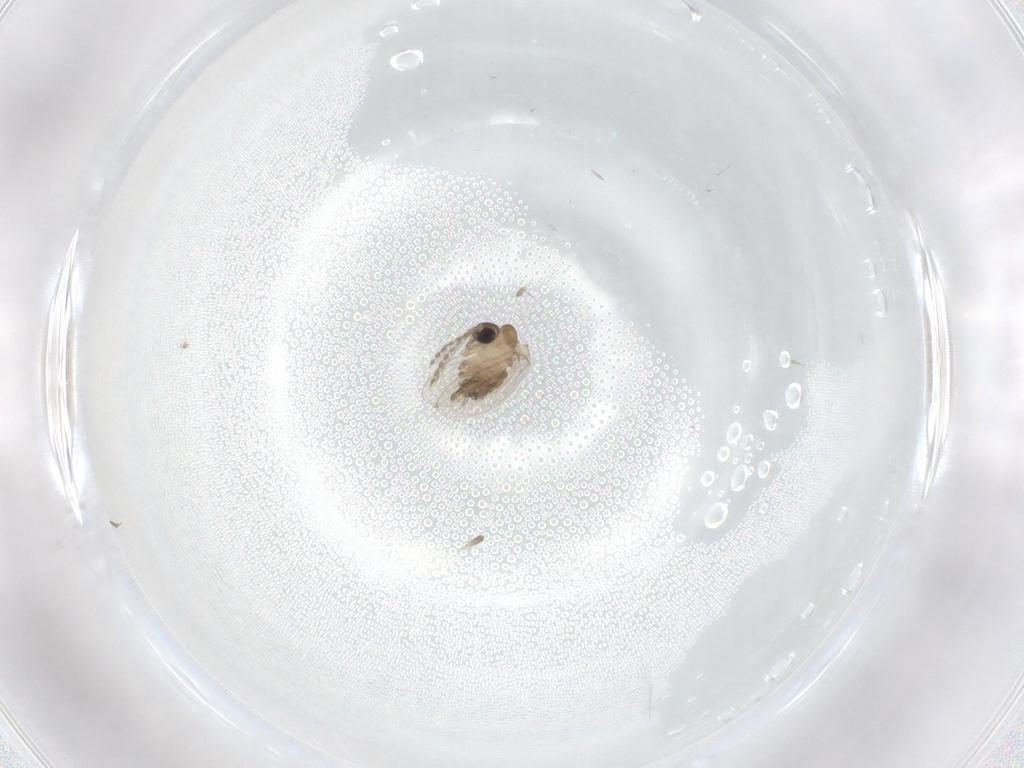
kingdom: Animalia
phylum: Arthropoda
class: Insecta
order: Diptera
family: Psychodidae
